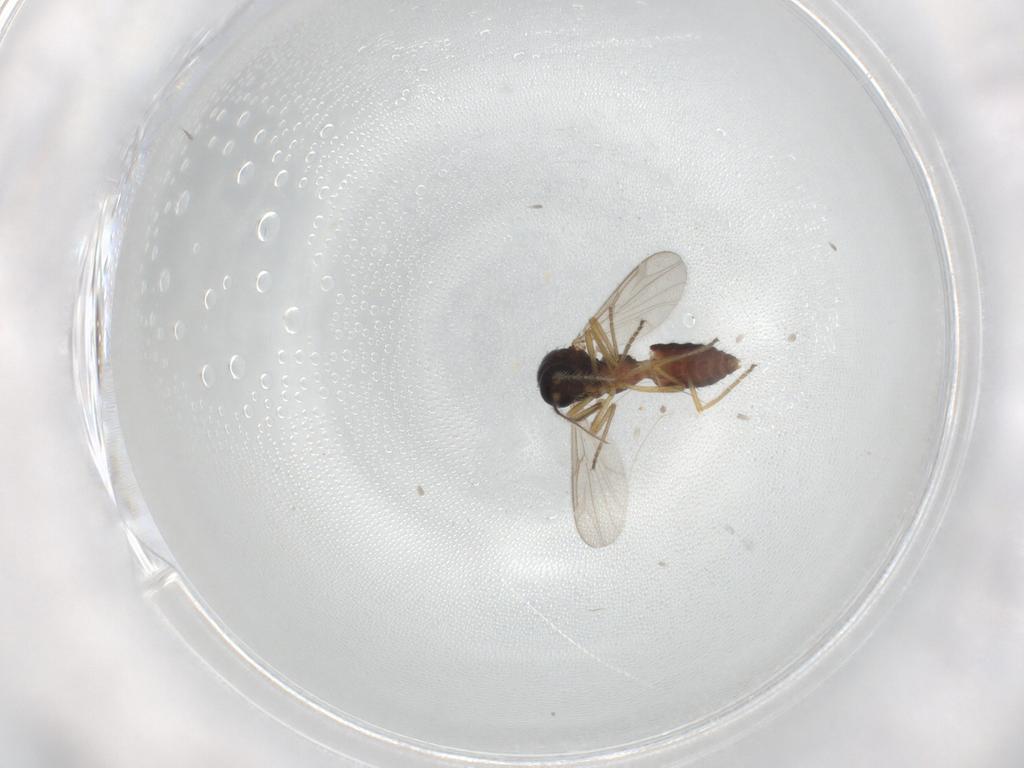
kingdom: Animalia
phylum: Arthropoda
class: Insecta
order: Diptera
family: Ceratopogonidae
